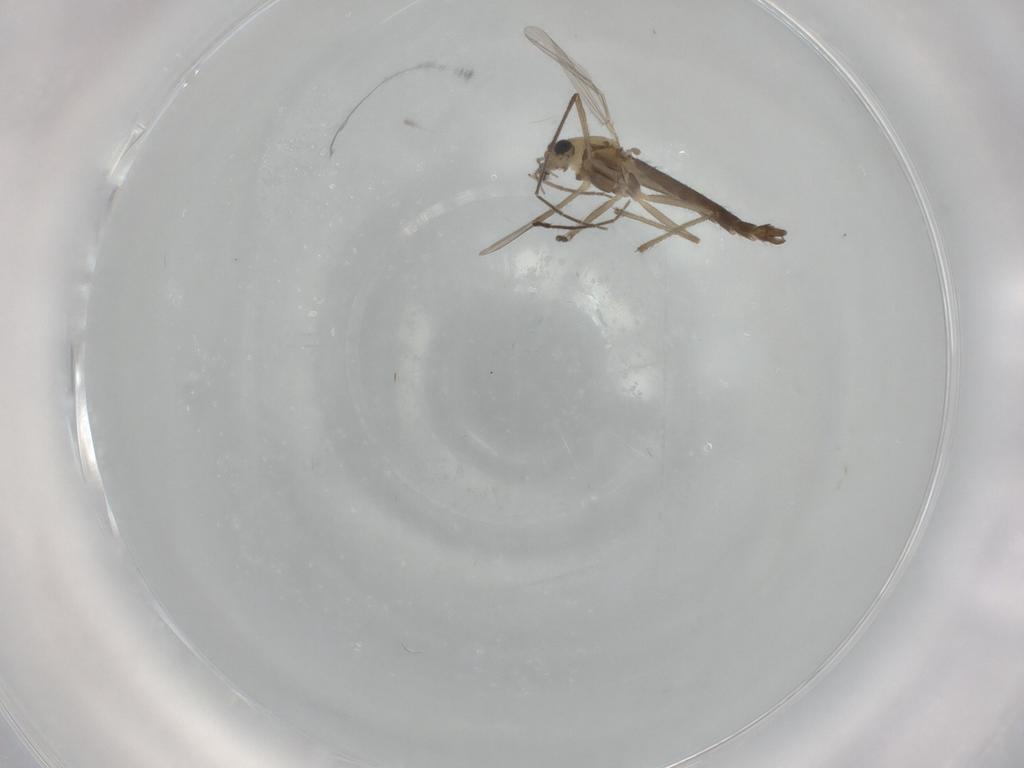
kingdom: Animalia
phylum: Arthropoda
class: Insecta
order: Diptera
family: Chironomidae
